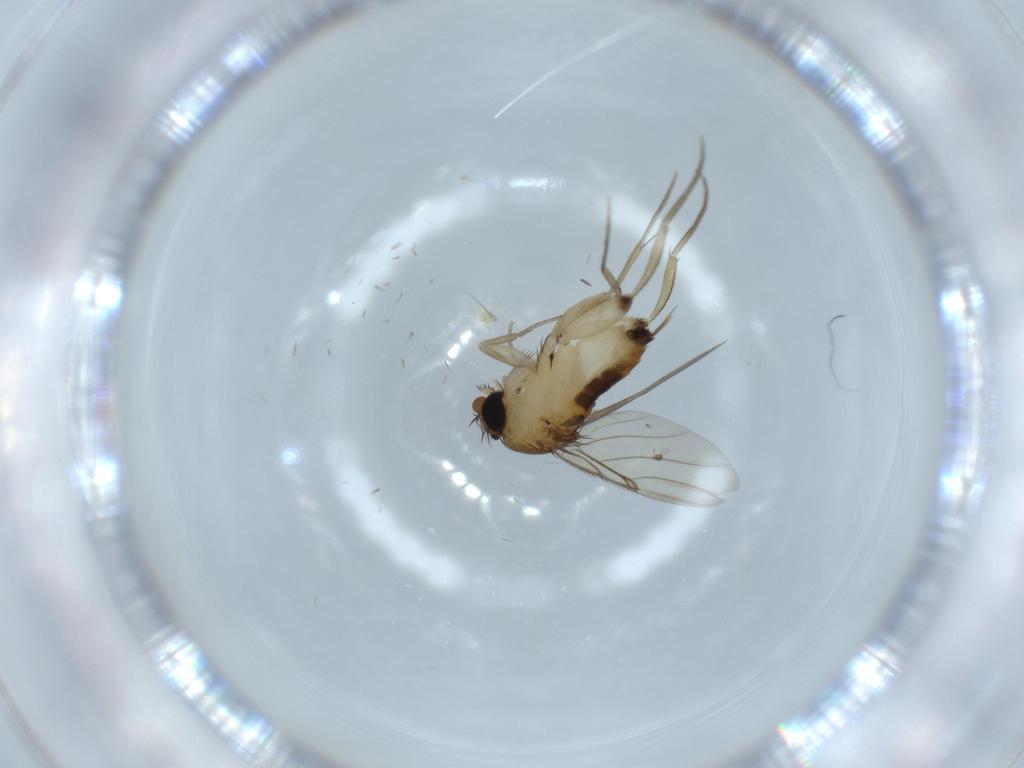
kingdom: Animalia
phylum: Arthropoda
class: Insecta
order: Diptera
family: Phoridae
